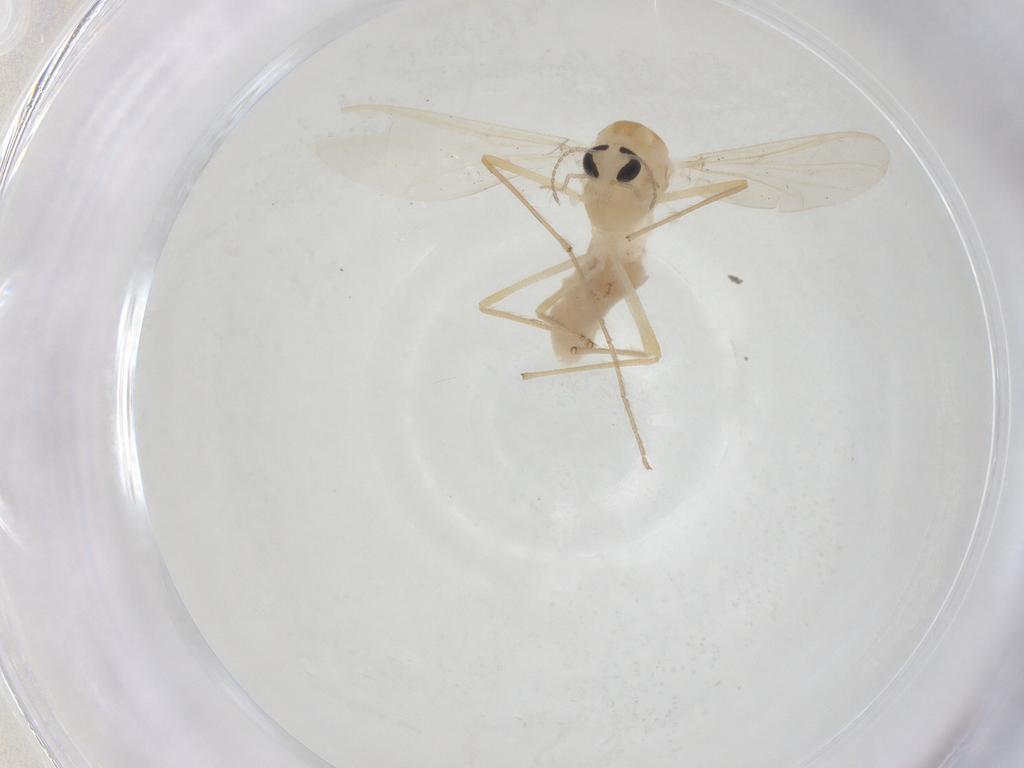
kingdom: Animalia
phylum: Arthropoda
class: Insecta
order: Diptera
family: Chironomidae
